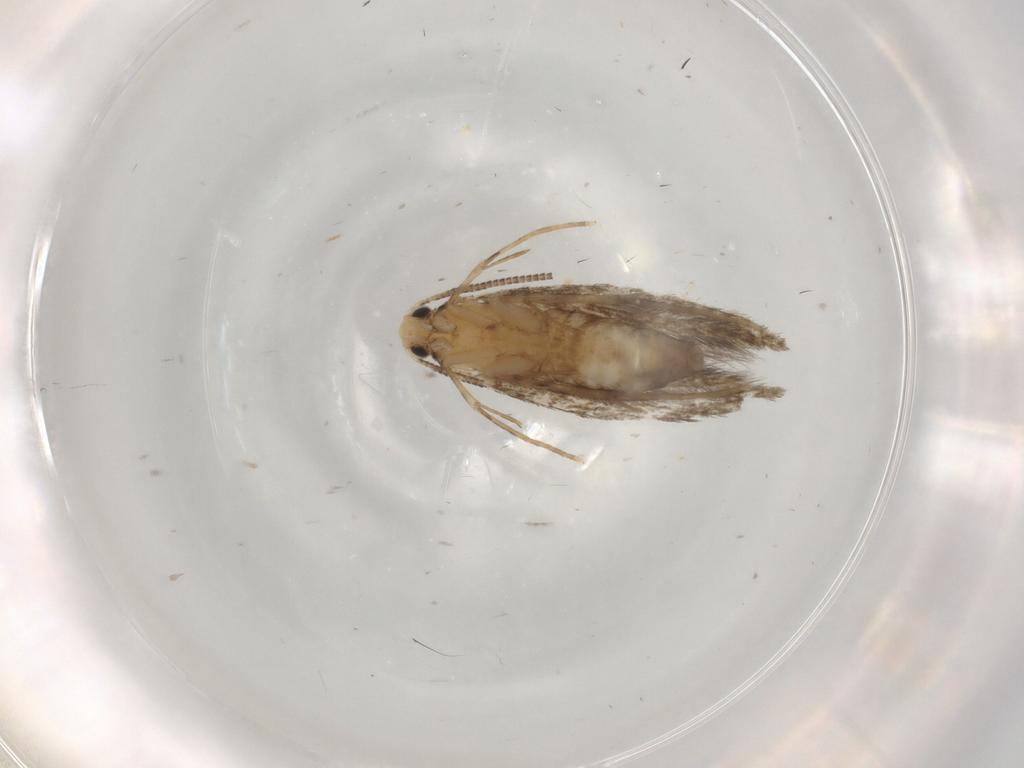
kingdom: Animalia
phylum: Arthropoda
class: Insecta
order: Lepidoptera
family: Tineidae
